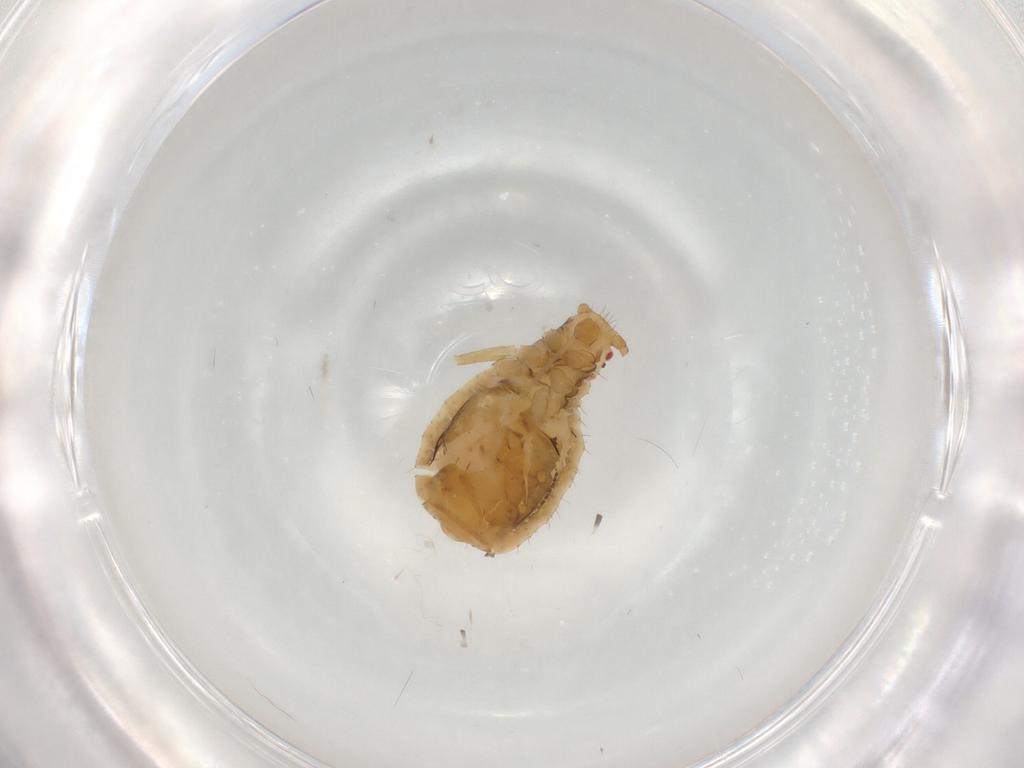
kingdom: Animalia
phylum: Arthropoda
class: Insecta
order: Hemiptera
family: Aphididae
